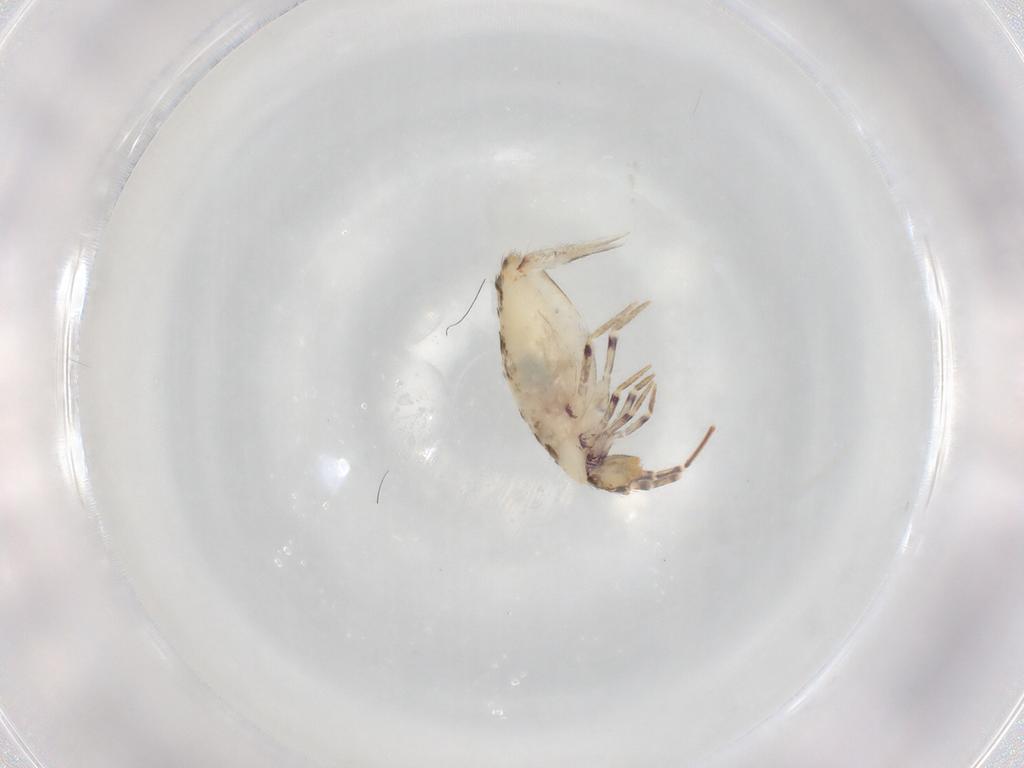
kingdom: Animalia
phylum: Arthropoda
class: Collembola
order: Entomobryomorpha
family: Entomobryidae
